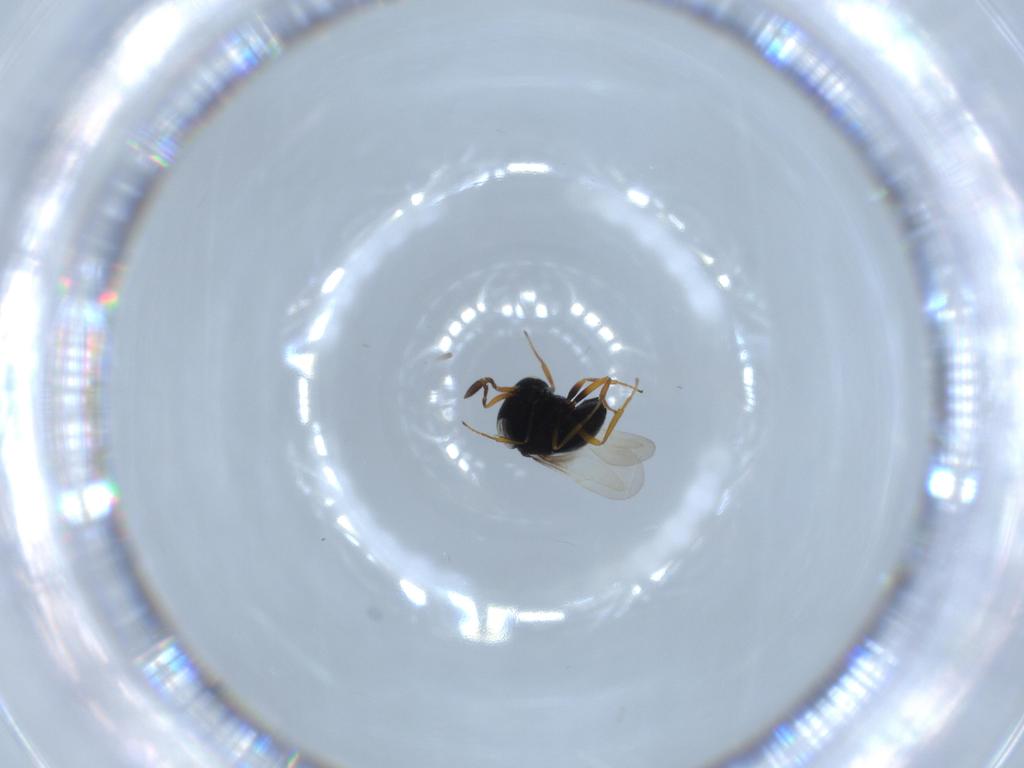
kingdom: Animalia
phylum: Arthropoda
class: Insecta
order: Hymenoptera
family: Scelionidae
